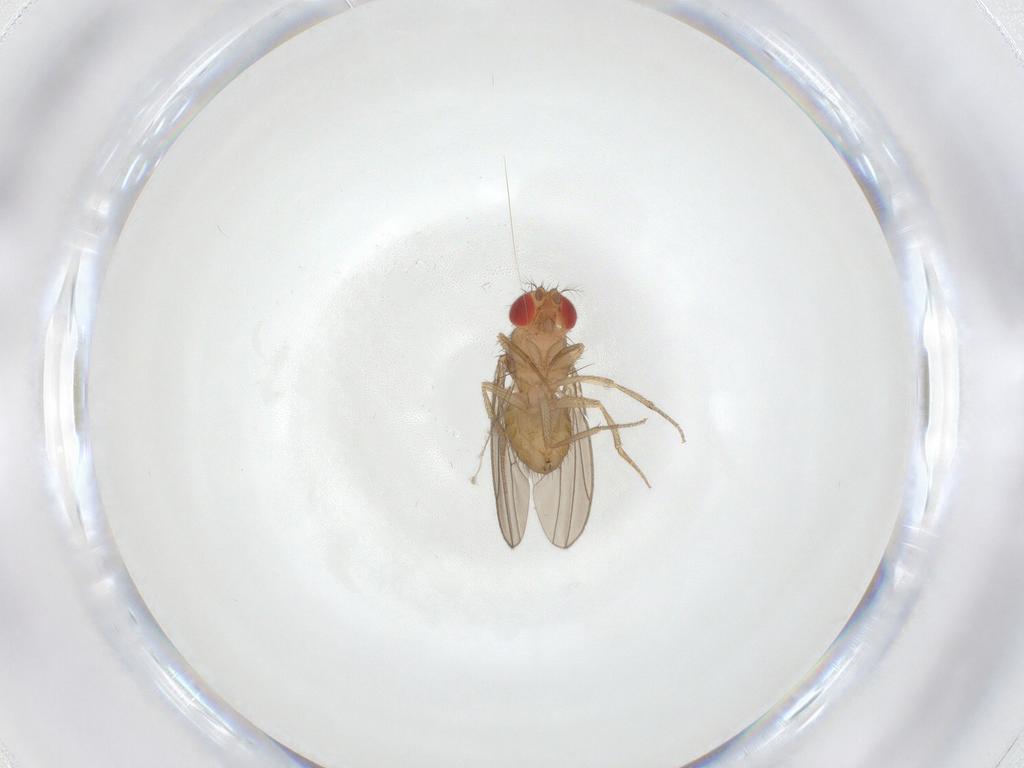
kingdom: Animalia
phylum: Arthropoda
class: Insecta
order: Diptera
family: Drosophilidae
